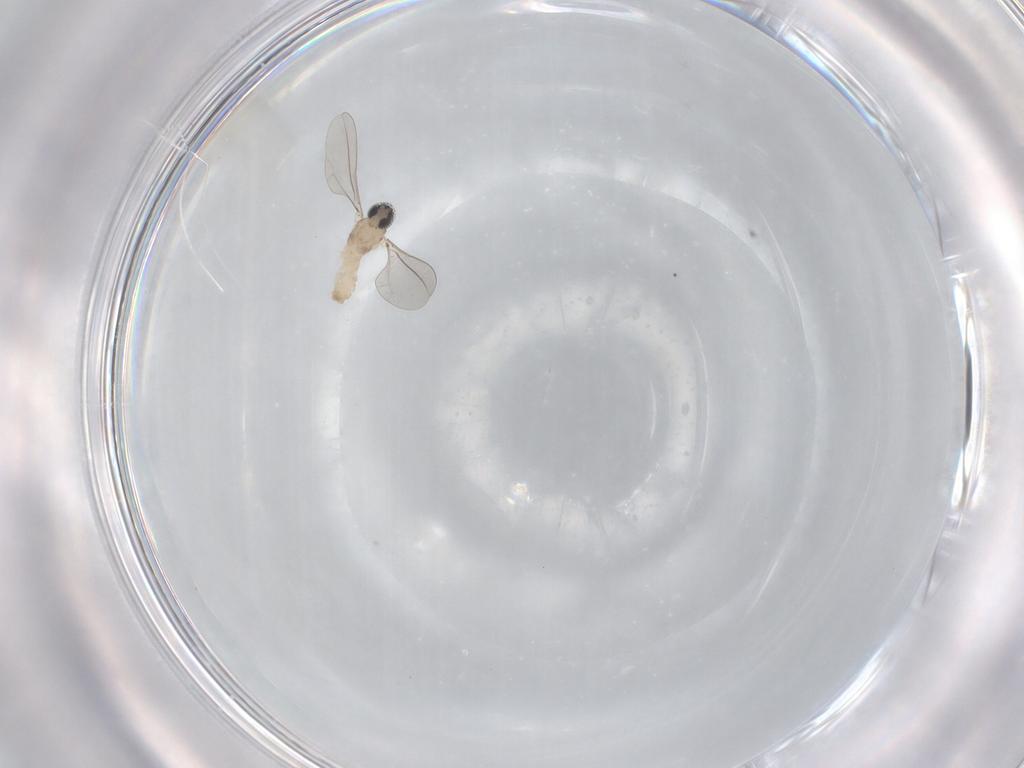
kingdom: Animalia
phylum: Arthropoda
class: Insecta
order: Diptera
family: Cecidomyiidae
